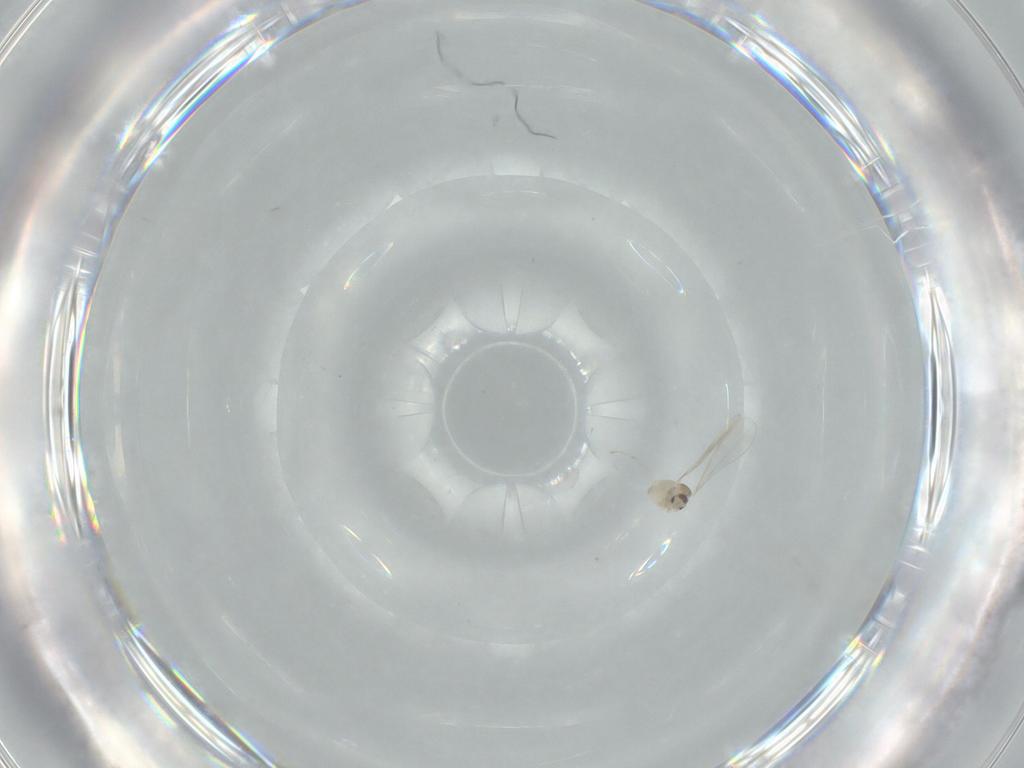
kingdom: Animalia
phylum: Arthropoda
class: Insecta
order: Diptera
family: Cecidomyiidae
